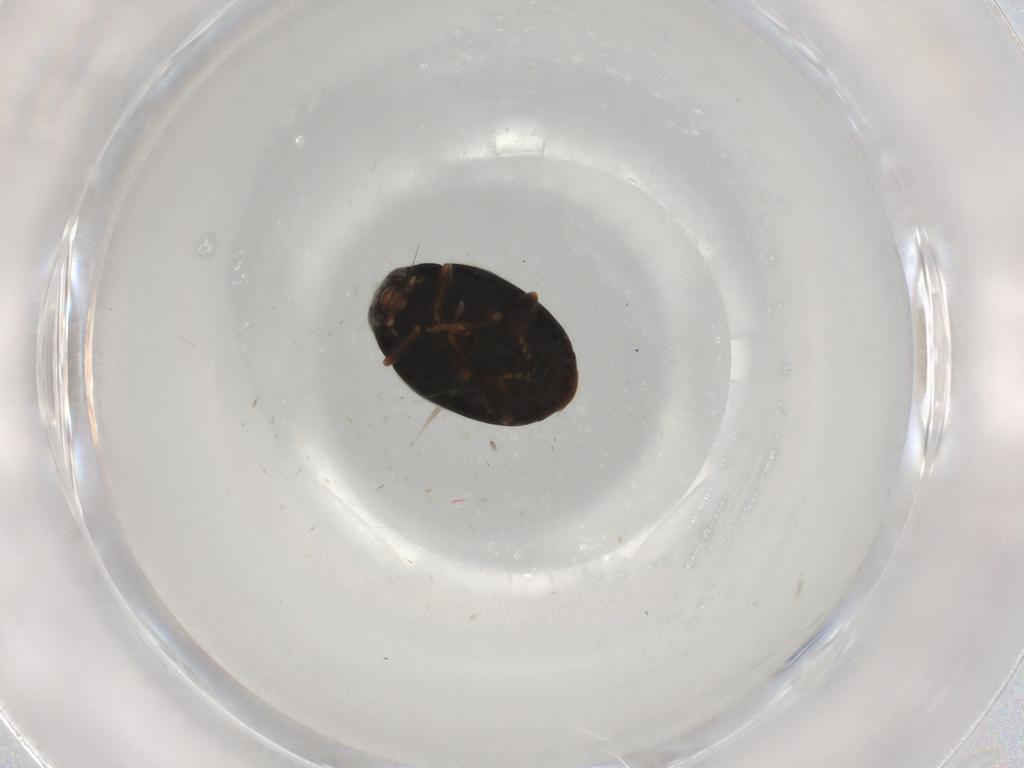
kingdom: Animalia
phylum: Arthropoda
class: Insecta
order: Coleoptera
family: Coccinellidae
